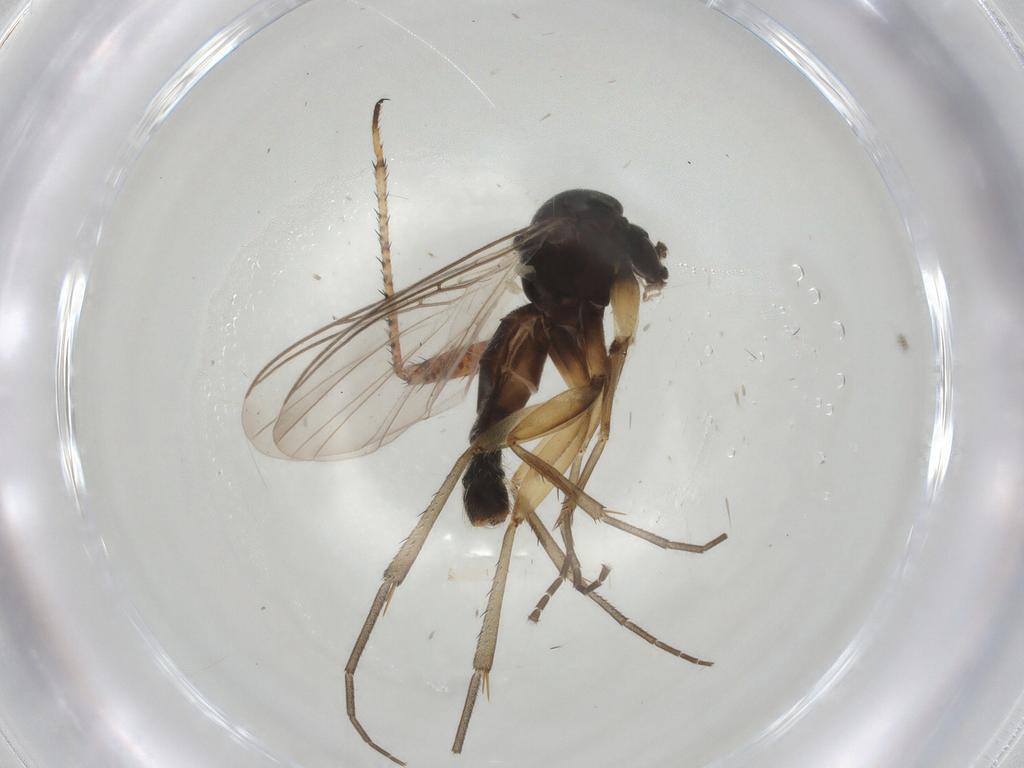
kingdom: Animalia
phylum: Arthropoda
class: Insecta
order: Diptera
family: Mycetophilidae
